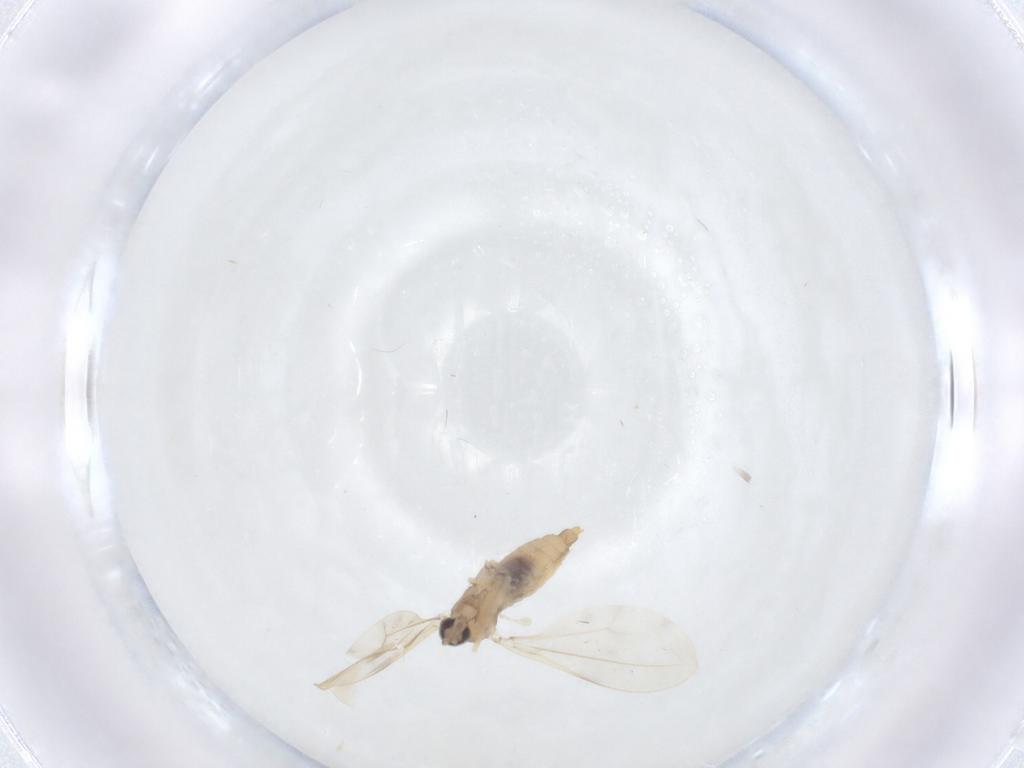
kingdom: Animalia
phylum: Arthropoda
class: Insecta
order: Diptera
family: Cecidomyiidae
